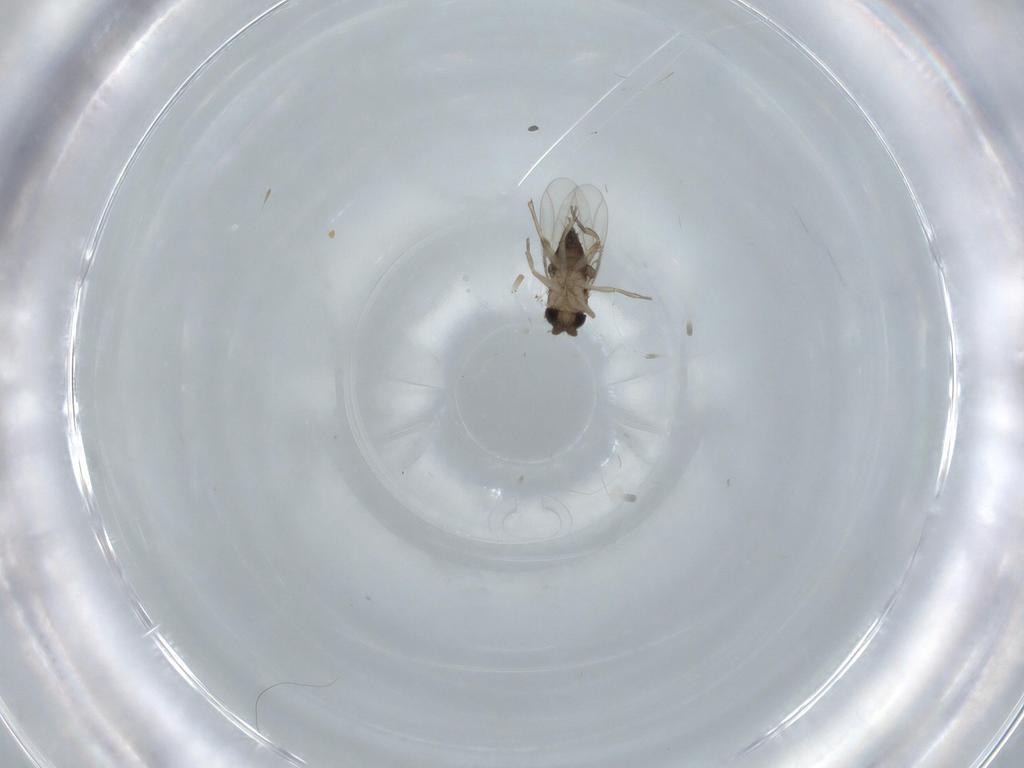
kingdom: Animalia
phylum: Arthropoda
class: Insecta
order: Diptera
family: Phoridae
